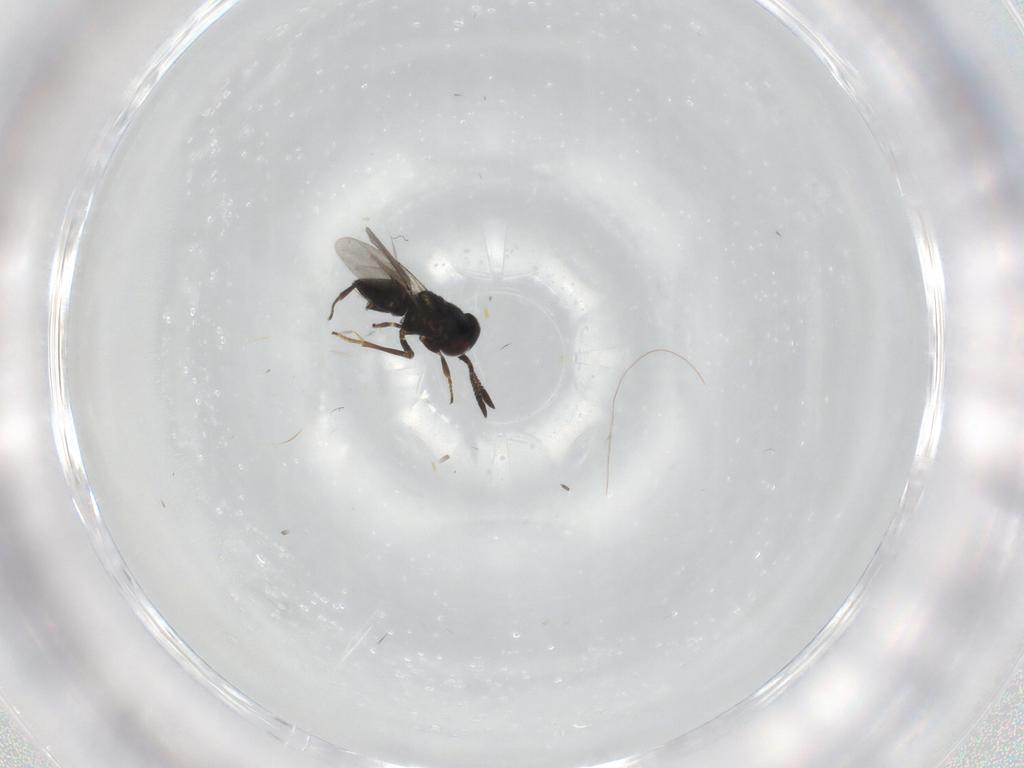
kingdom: Animalia
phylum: Arthropoda
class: Insecta
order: Hymenoptera
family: Encyrtidae
